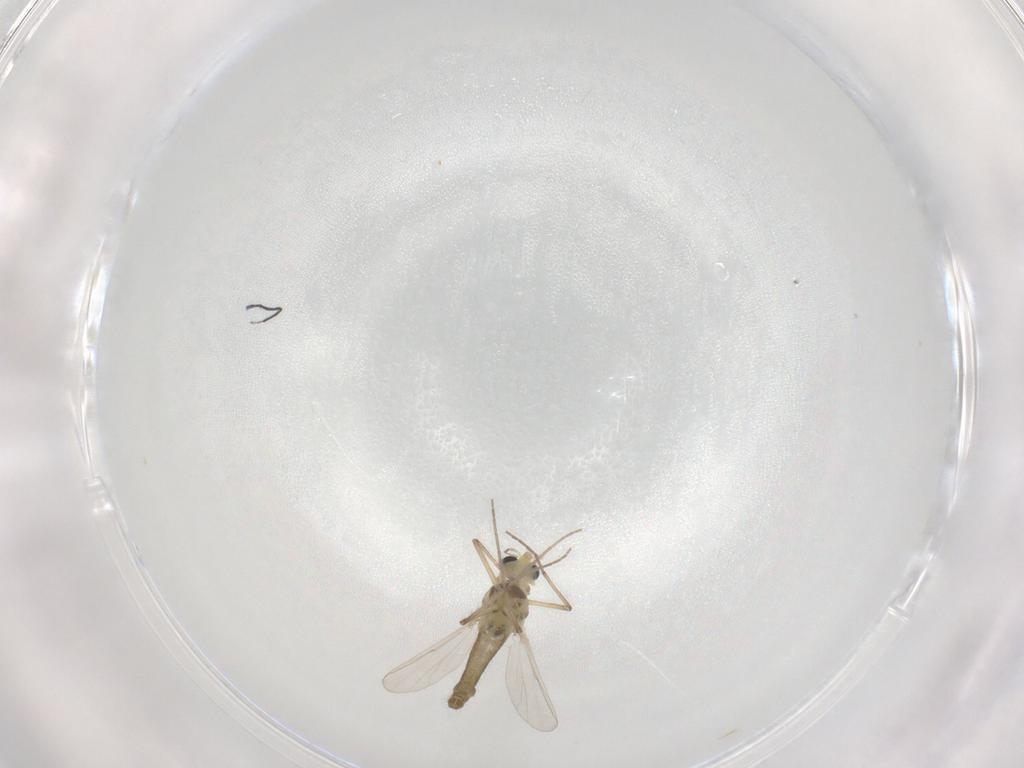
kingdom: Animalia
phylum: Arthropoda
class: Insecta
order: Diptera
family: Chironomidae
